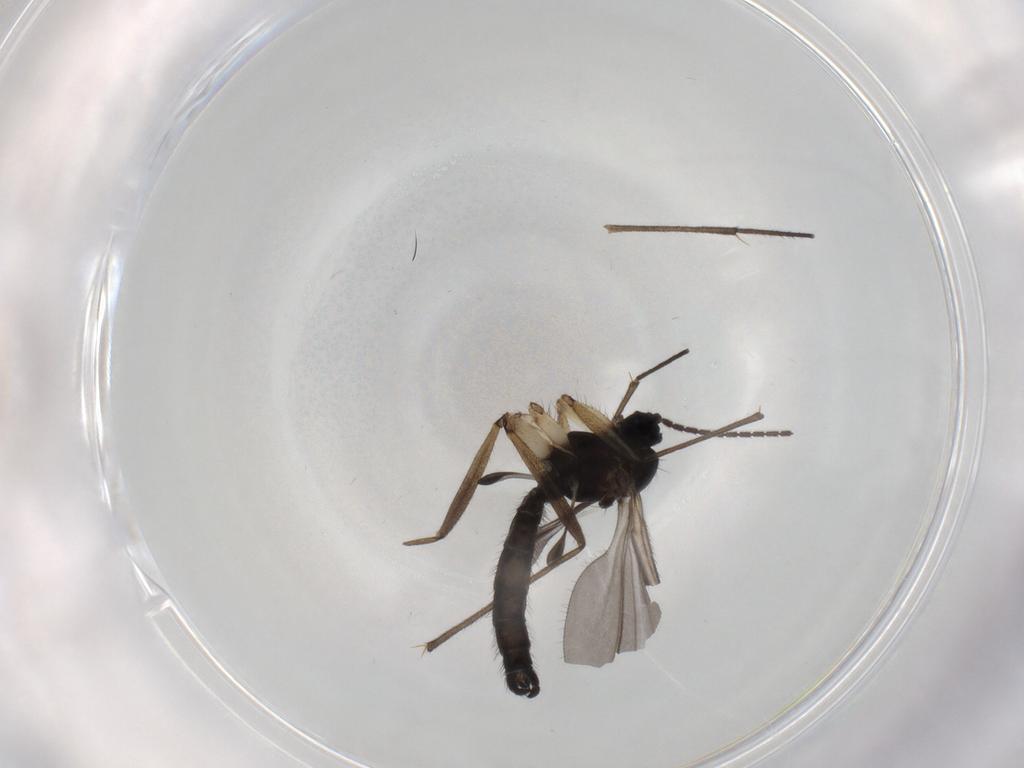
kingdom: Animalia
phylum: Arthropoda
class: Insecta
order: Diptera
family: Sciaridae
